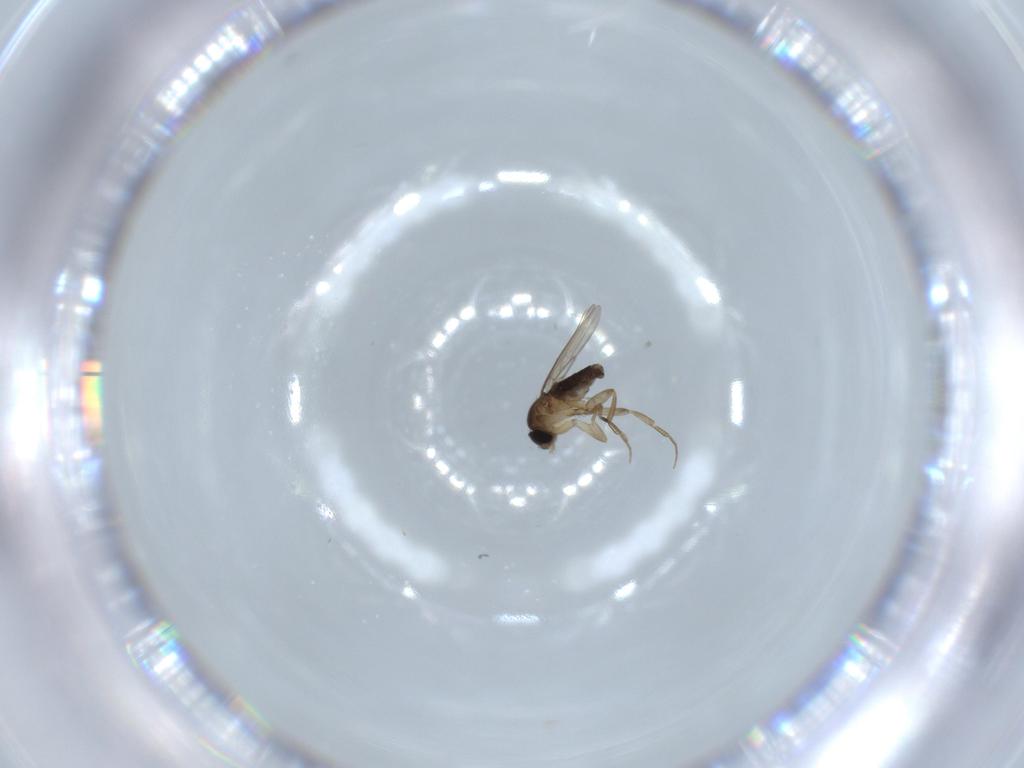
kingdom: Animalia
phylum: Arthropoda
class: Insecta
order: Diptera
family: Phoridae
